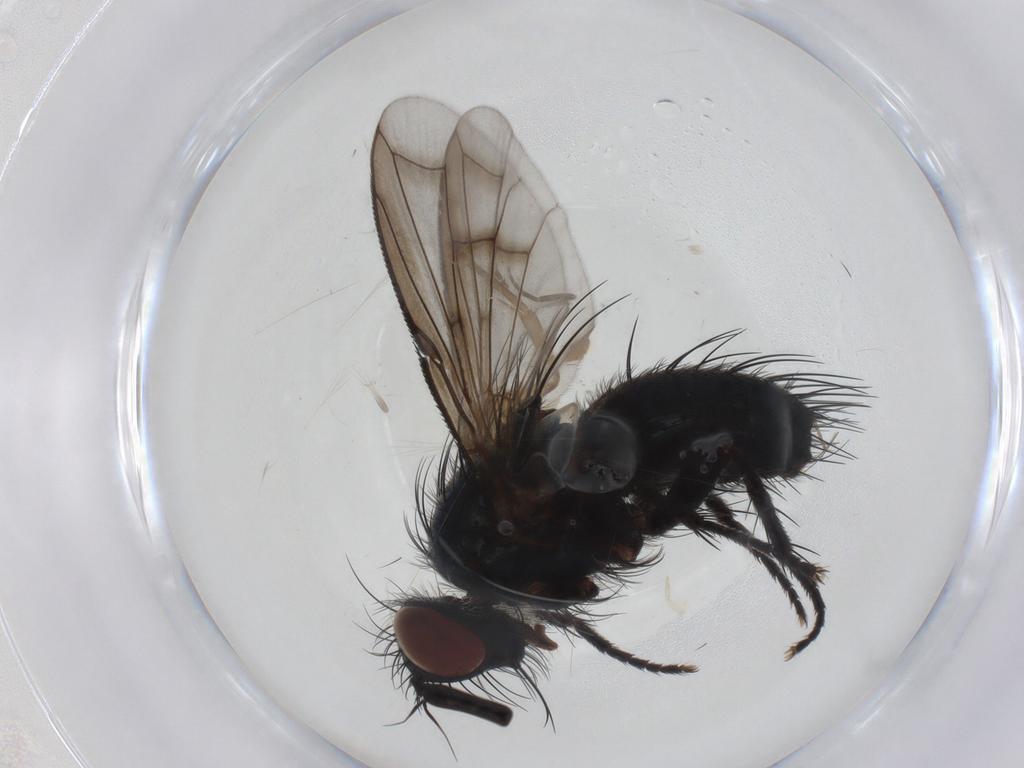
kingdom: Animalia
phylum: Arthropoda
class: Insecta
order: Diptera
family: Tachinidae
